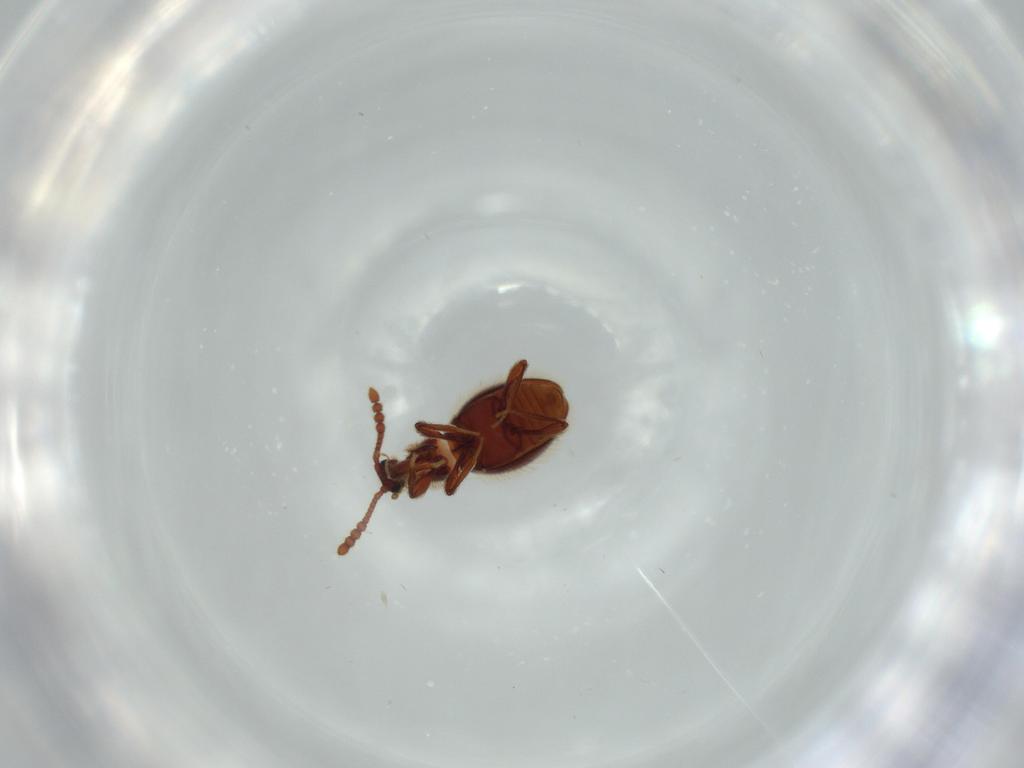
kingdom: Animalia
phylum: Arthropoda
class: Insecta
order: Coleoptera
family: Staphylinidae
